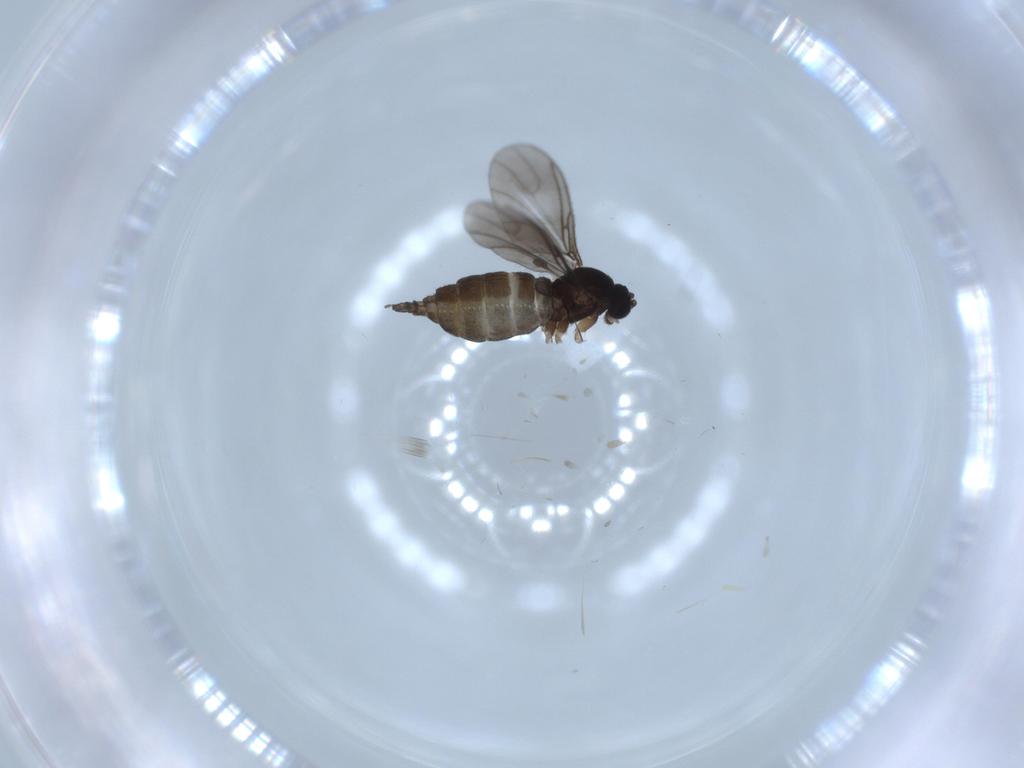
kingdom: Animalia
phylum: Arthropoda
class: Insecta
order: Diptera
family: Sciaridae
